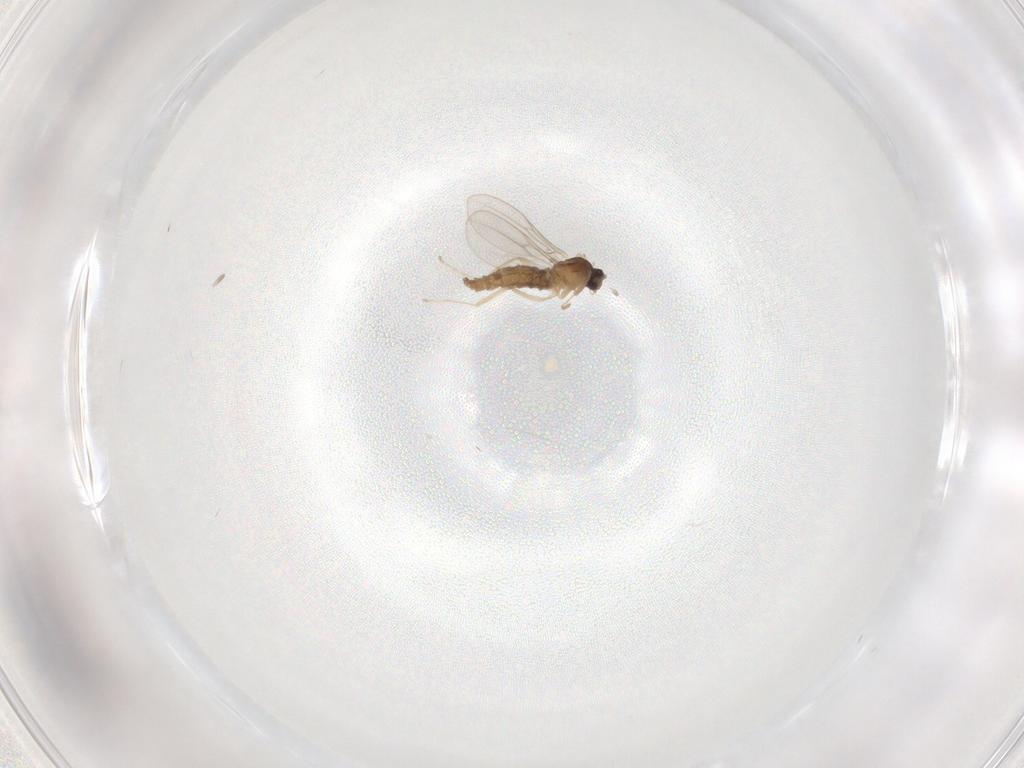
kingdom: Animalia
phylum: Arthropoda
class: Insecta
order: Diptera
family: Cecidomyiidae
